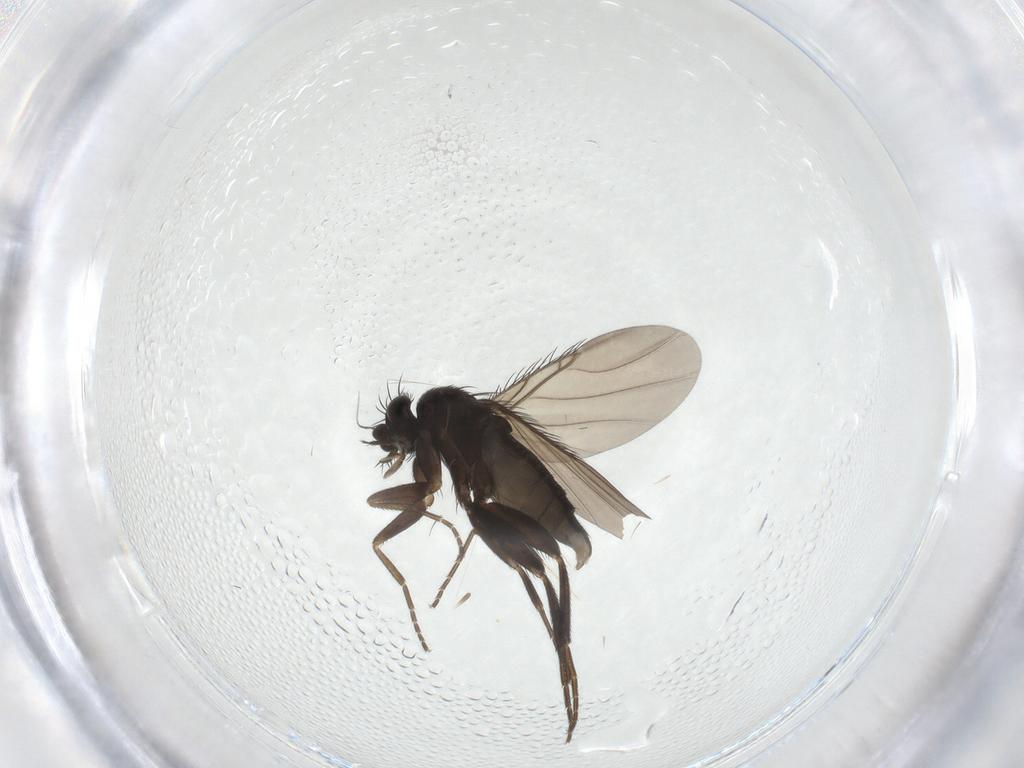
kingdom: Animalia
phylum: Arthropoda
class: Insecta
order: Diptera
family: Phoridae
